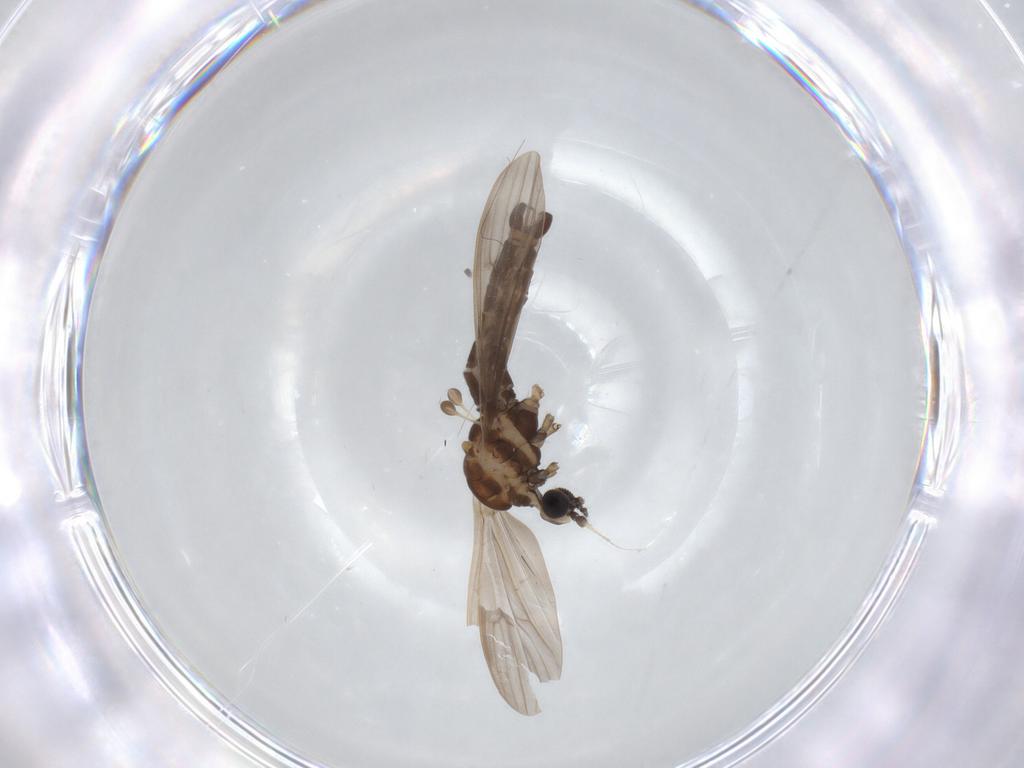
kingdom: Animalia
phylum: Arthropoda
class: Insecta
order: Diptera
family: Limoniidae
